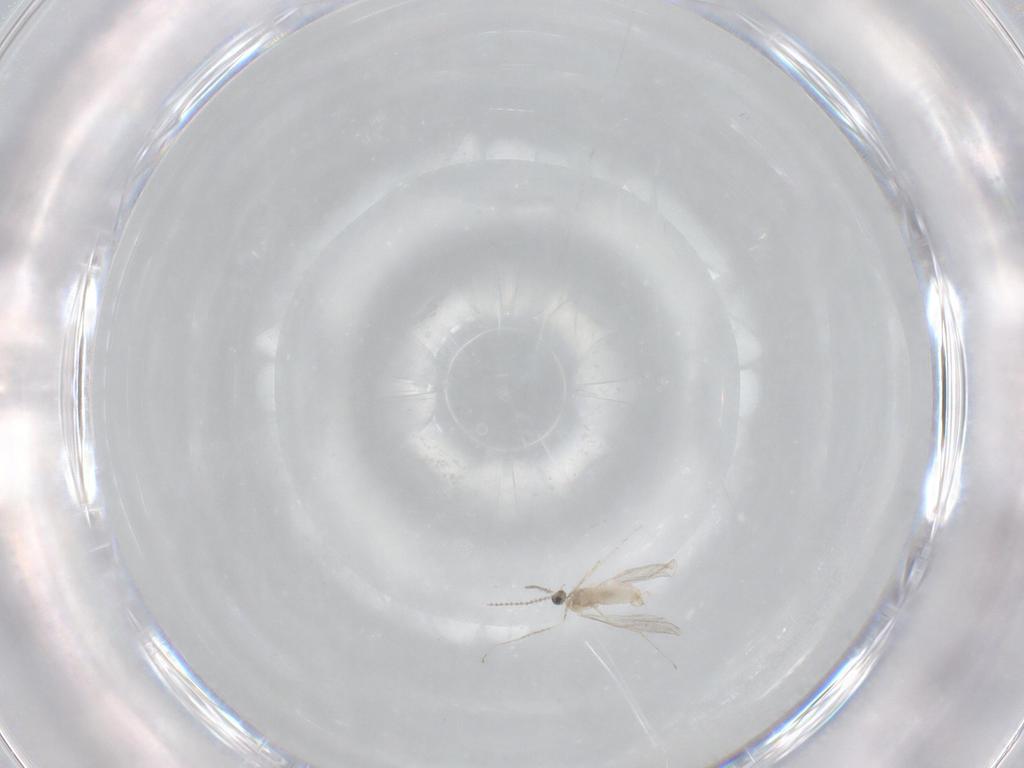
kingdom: Animalia
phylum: Arthropoda
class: Insecta
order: Diptera
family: Cecidomyiidae
